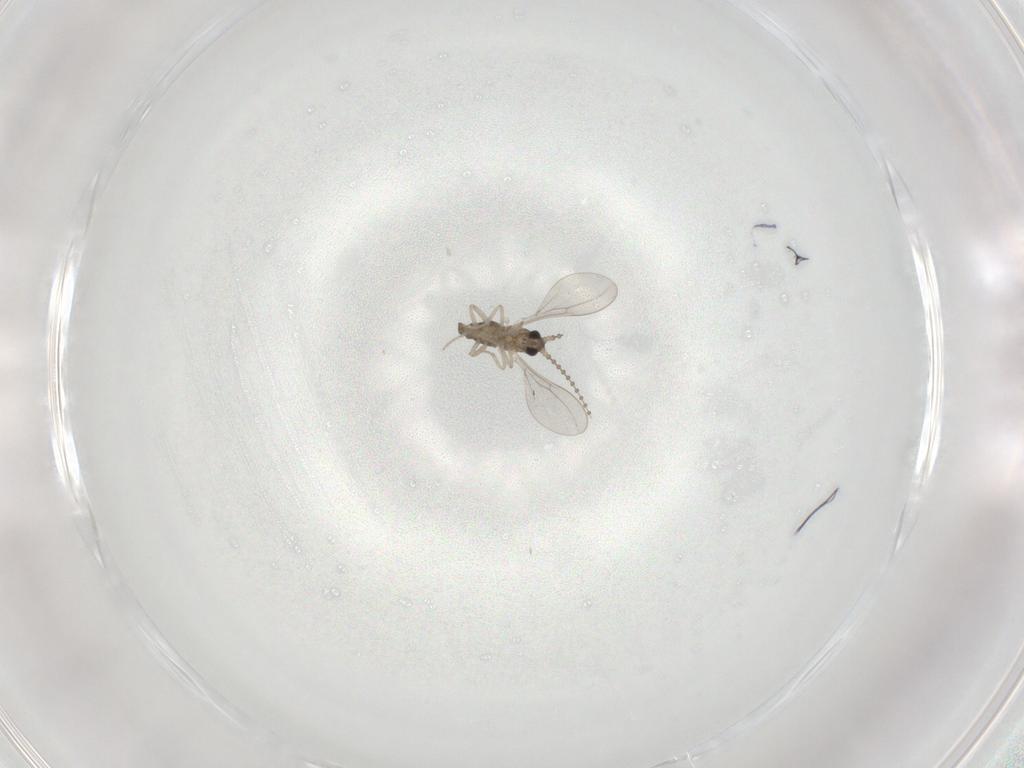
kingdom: Animalia
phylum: Arthropoda
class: Insecta
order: Diptera
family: Cecidomyiidae
